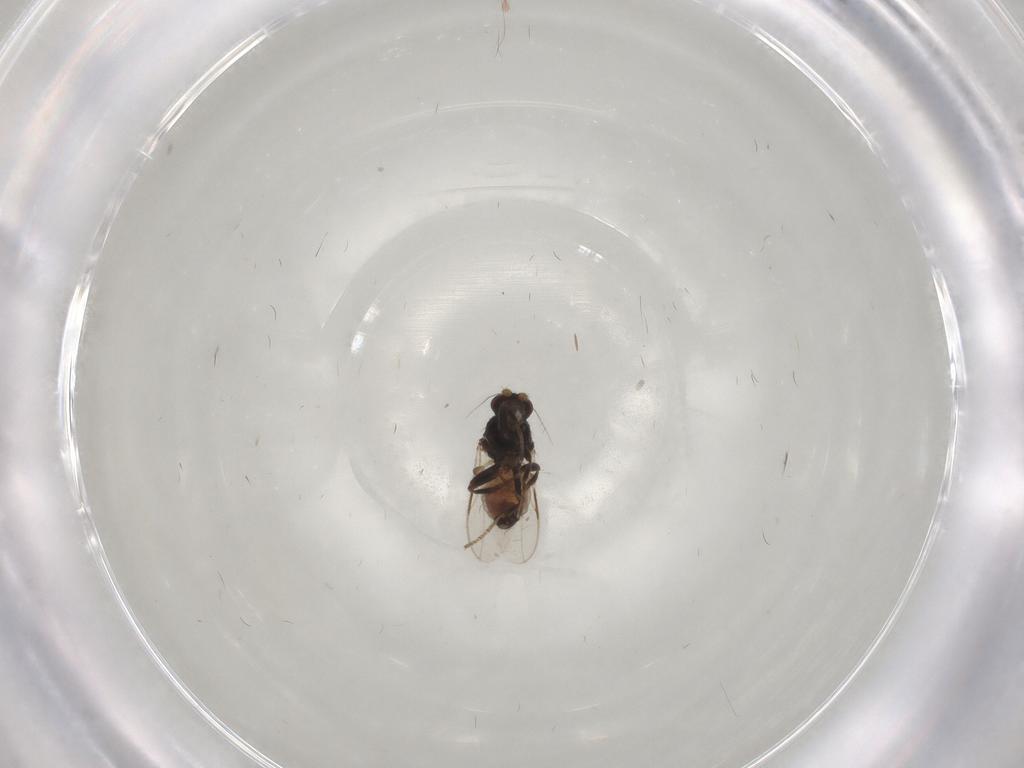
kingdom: Animalia
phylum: Arthropoda
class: Insecta
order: Diptera
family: Sphaeroceridae
